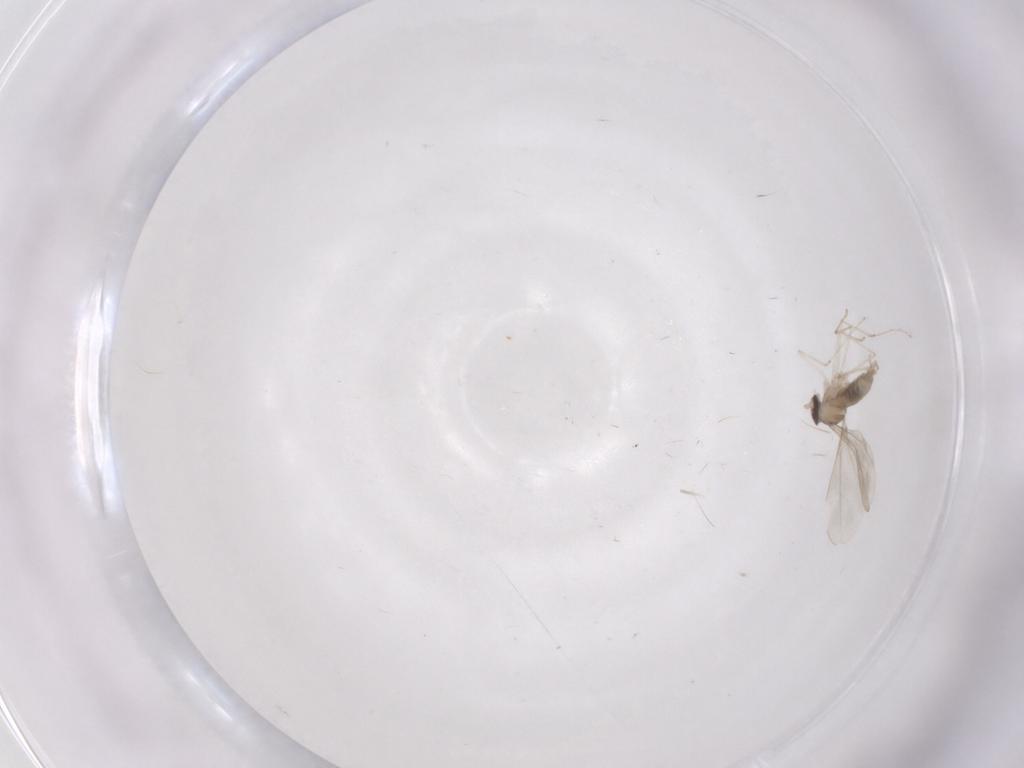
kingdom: Animalia
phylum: Arthropoda
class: Insecta
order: Diptera
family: Cecidomyiidae
